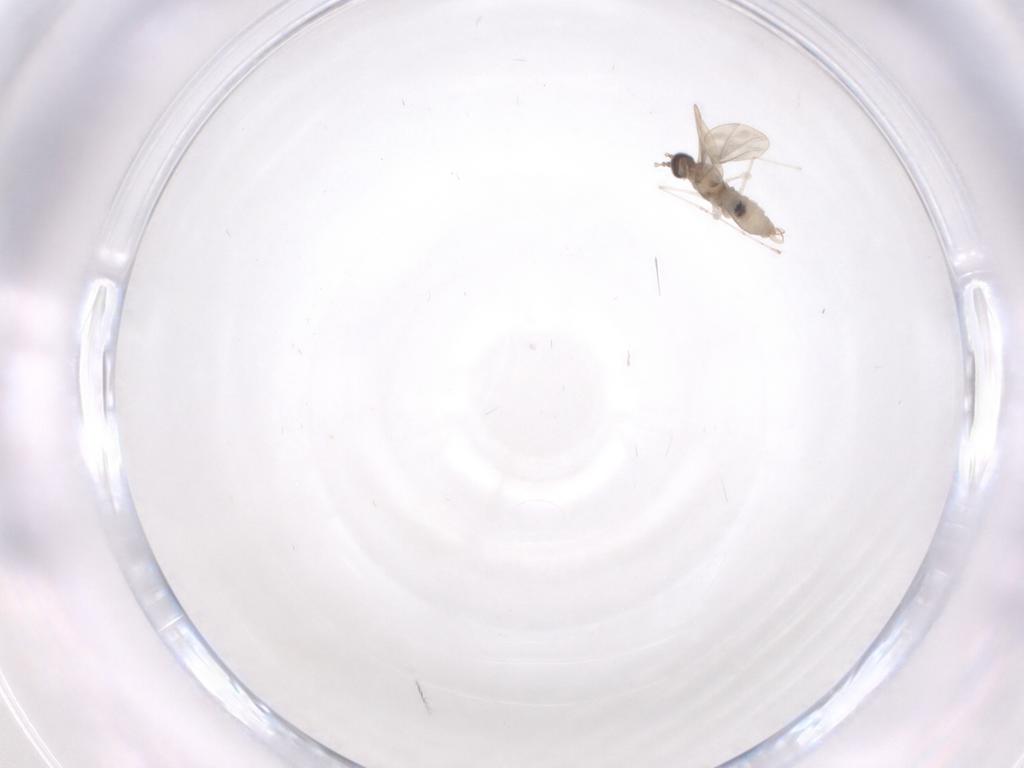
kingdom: Animalia
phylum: Arthropoda
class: Insecta
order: Diptera
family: Cecidomyiidae
